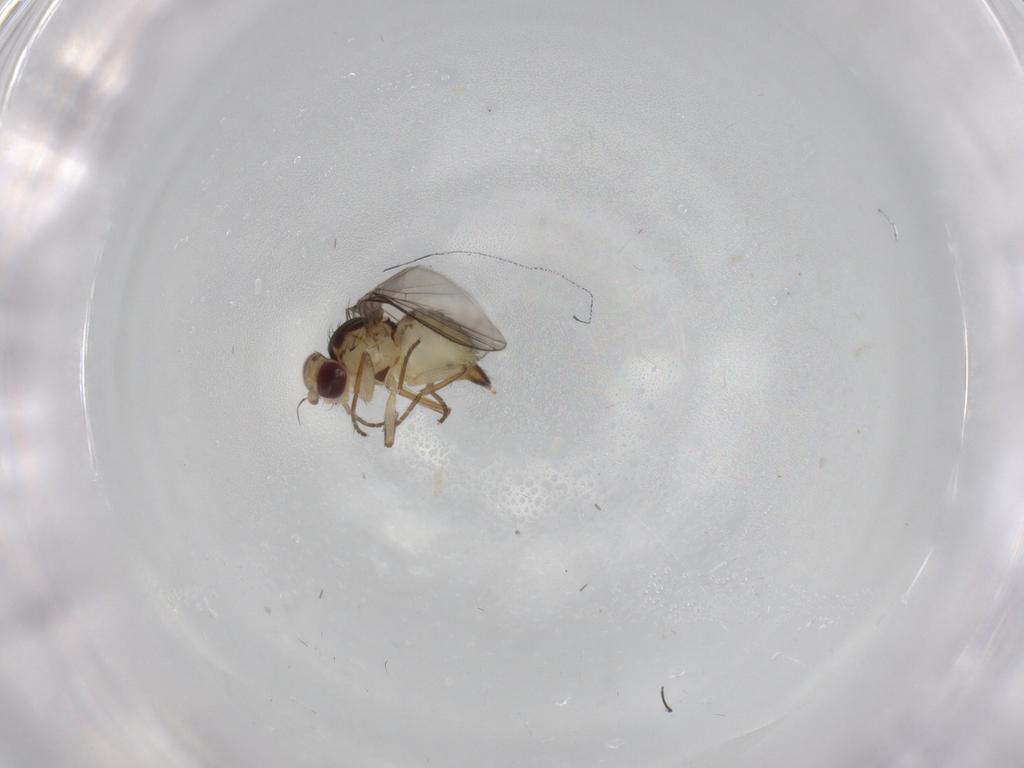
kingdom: Animalia
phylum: Arthropoda
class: Insecta
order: Diptera
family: Agromyzidae
